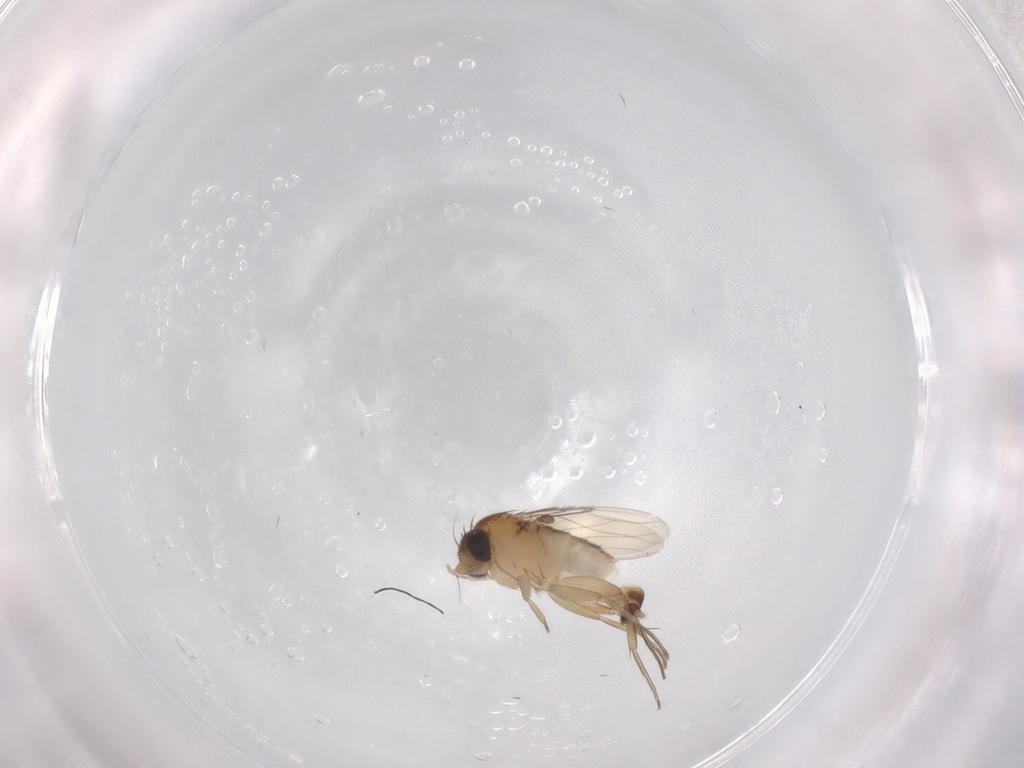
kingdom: Animalia
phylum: Arthropoda
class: Insecta
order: Diptera
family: Phoridae
